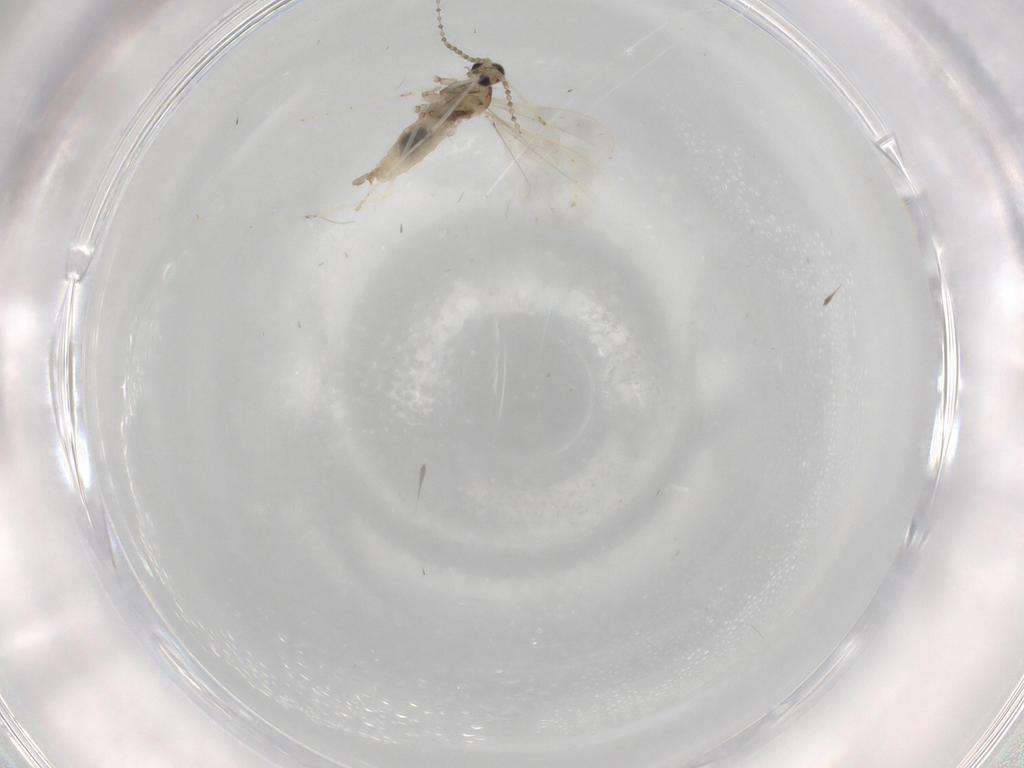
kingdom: Animalia
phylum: Arthropoda
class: Insecta
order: Diptera
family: Cecidomyiidae
